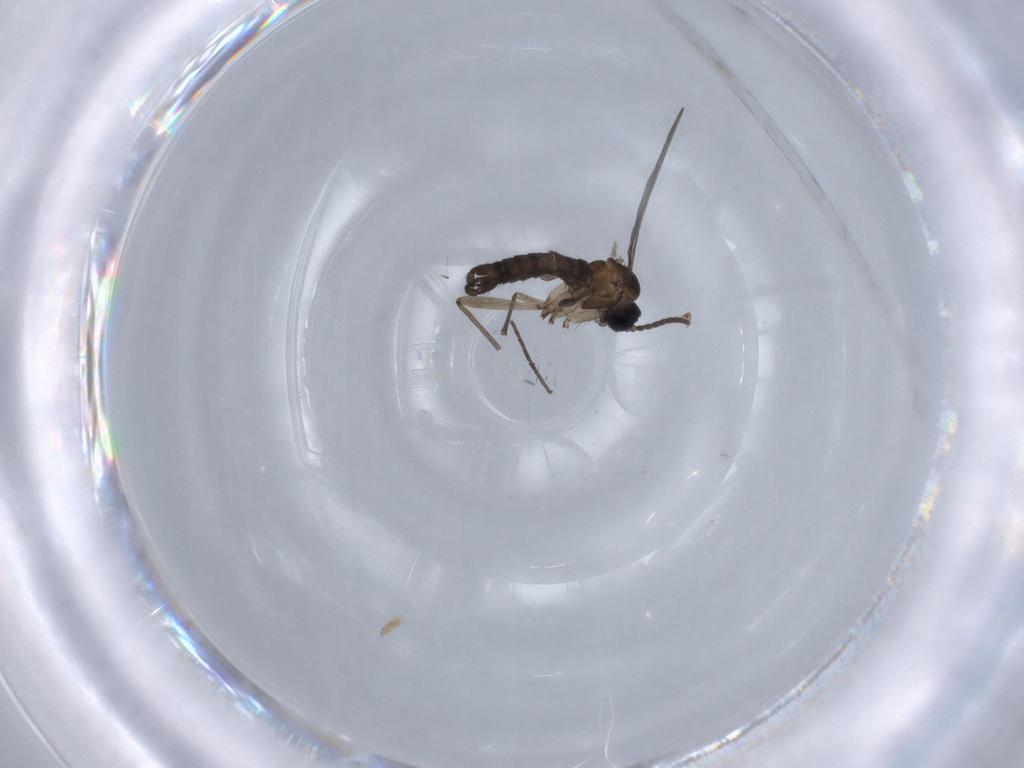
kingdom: Animalia
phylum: Arthropoda
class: Insecta
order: Diptera
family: Sciaridae
